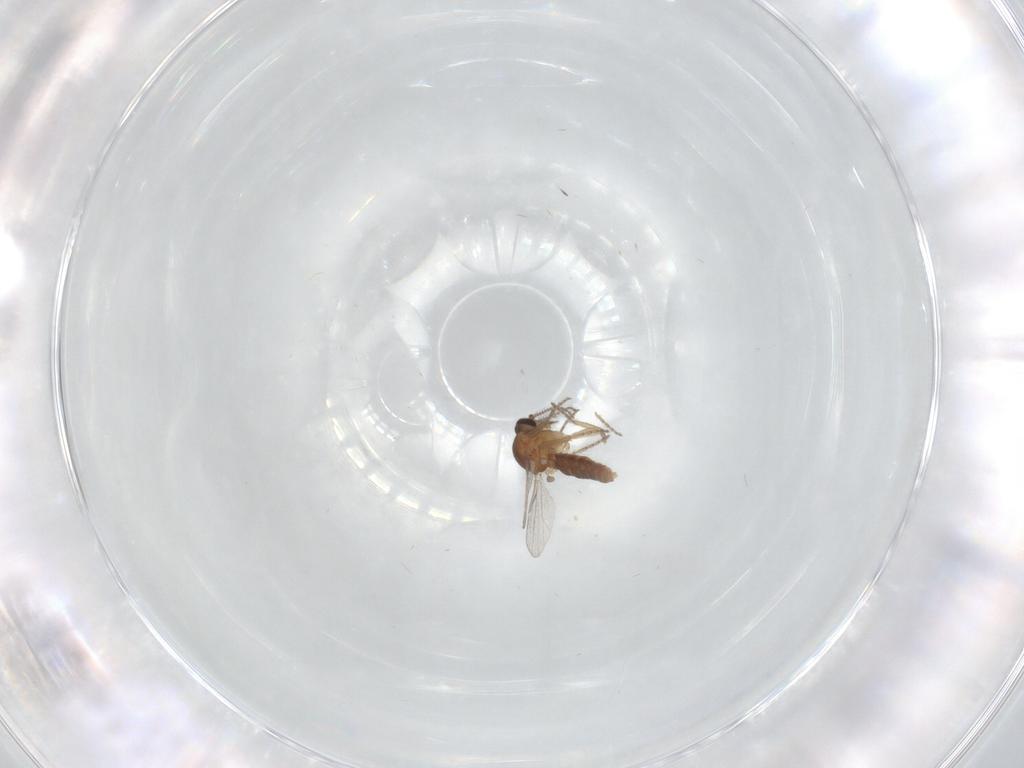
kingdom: Animalia
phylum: Arthropoda
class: Insecta
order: Diptera
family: Ceratopogonidae
